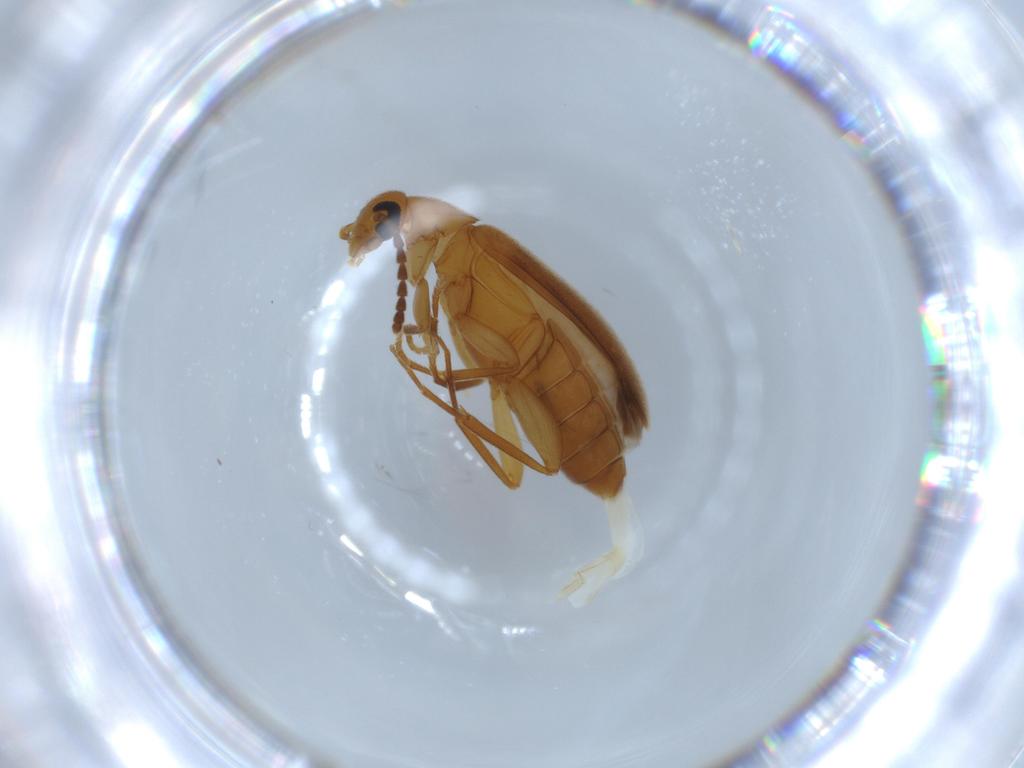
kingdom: Animalia
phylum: Arthropoda
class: Insecta
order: Coleoptera
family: Scraptiidae
